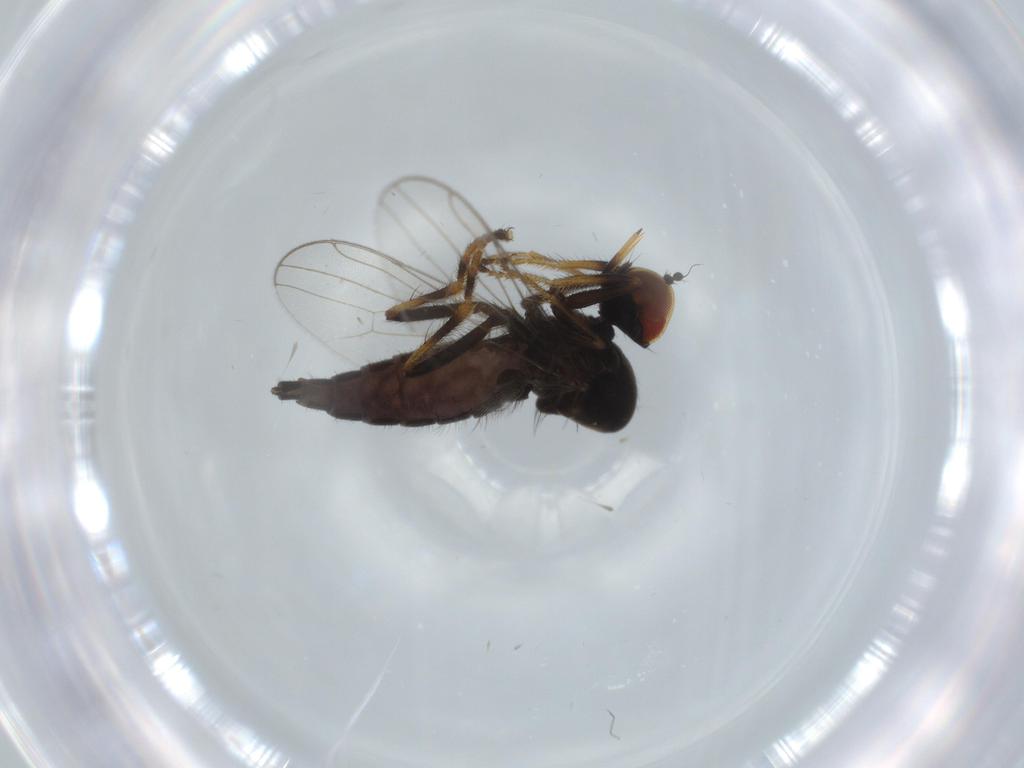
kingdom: Animalia
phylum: Arthropoda
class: Insecta
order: Diptera
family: Hybotidae
